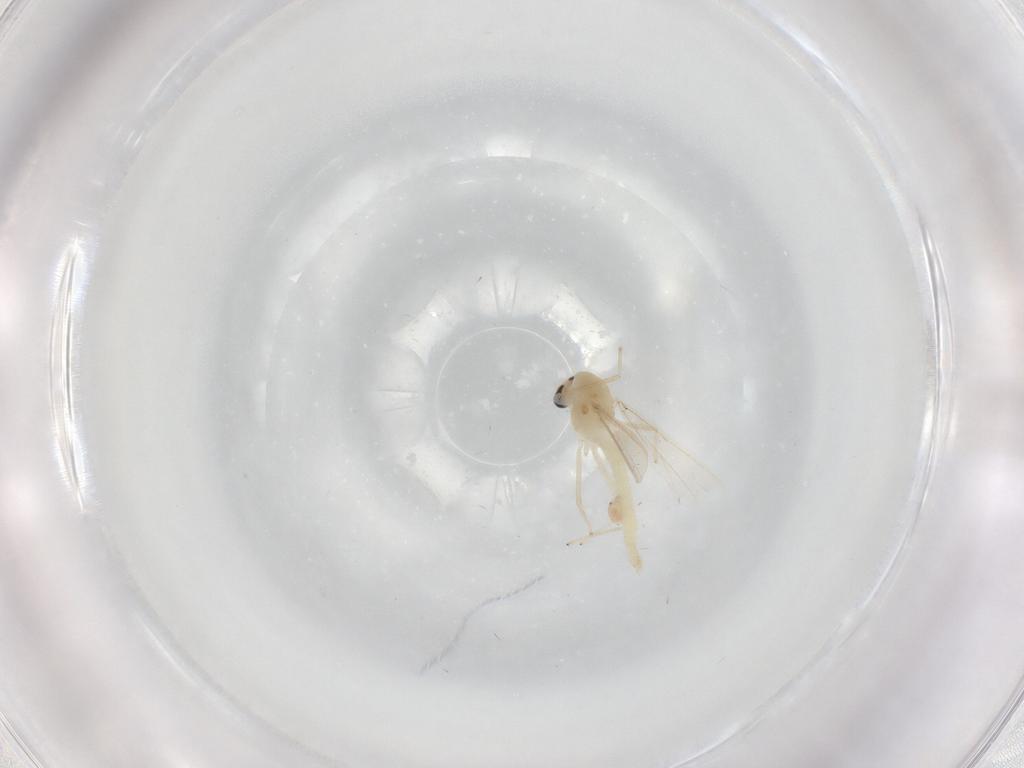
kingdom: Animalia
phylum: Arthropoda
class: Insecta
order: Diptera
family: Chironomidae
